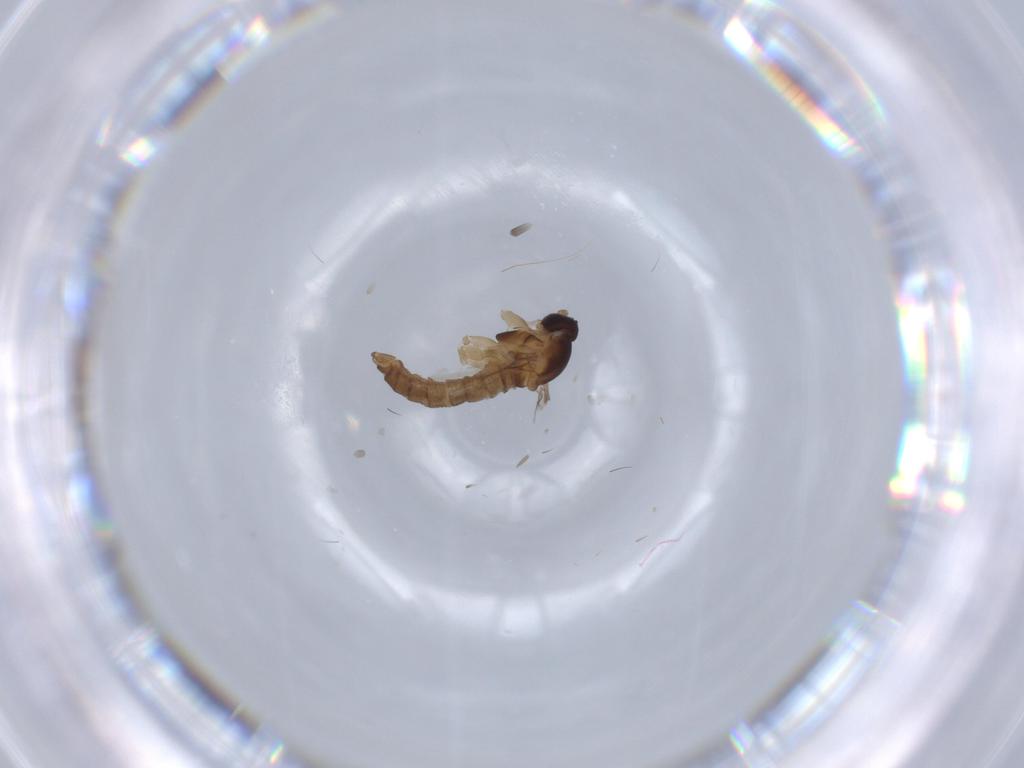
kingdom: Animalia
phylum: Arthropoda
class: Insecta
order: Diptera
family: Cecidomyiidae
